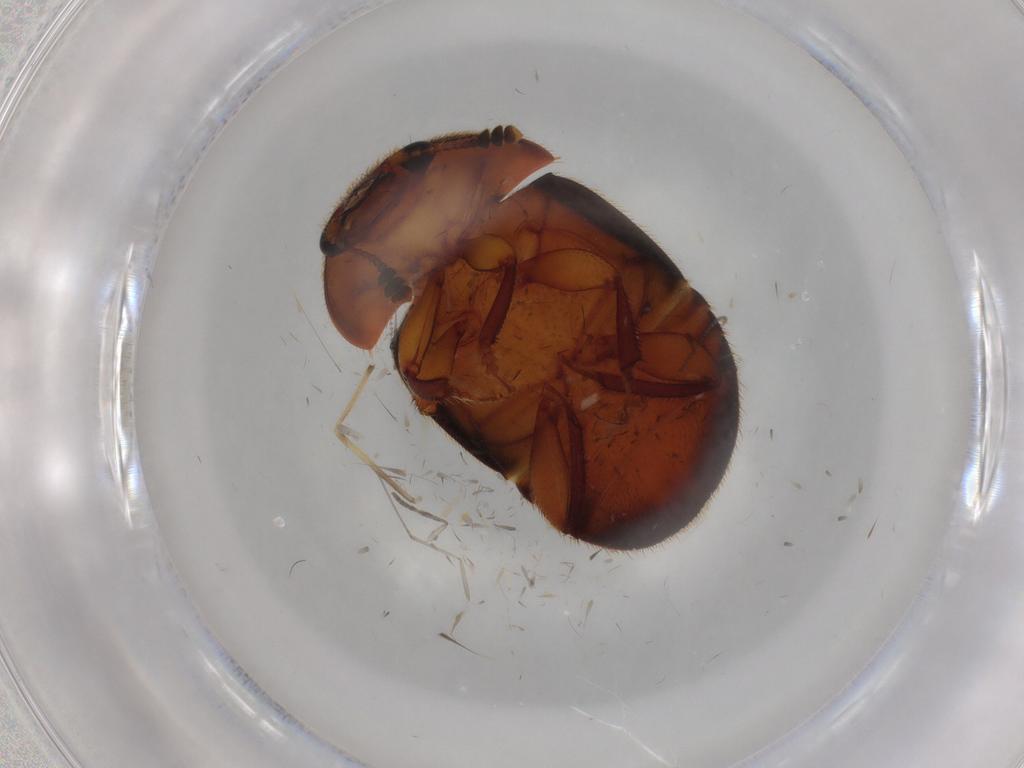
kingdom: Animalia
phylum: Arthropoda
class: Insecta
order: Coleoptera
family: Nitidulidae
